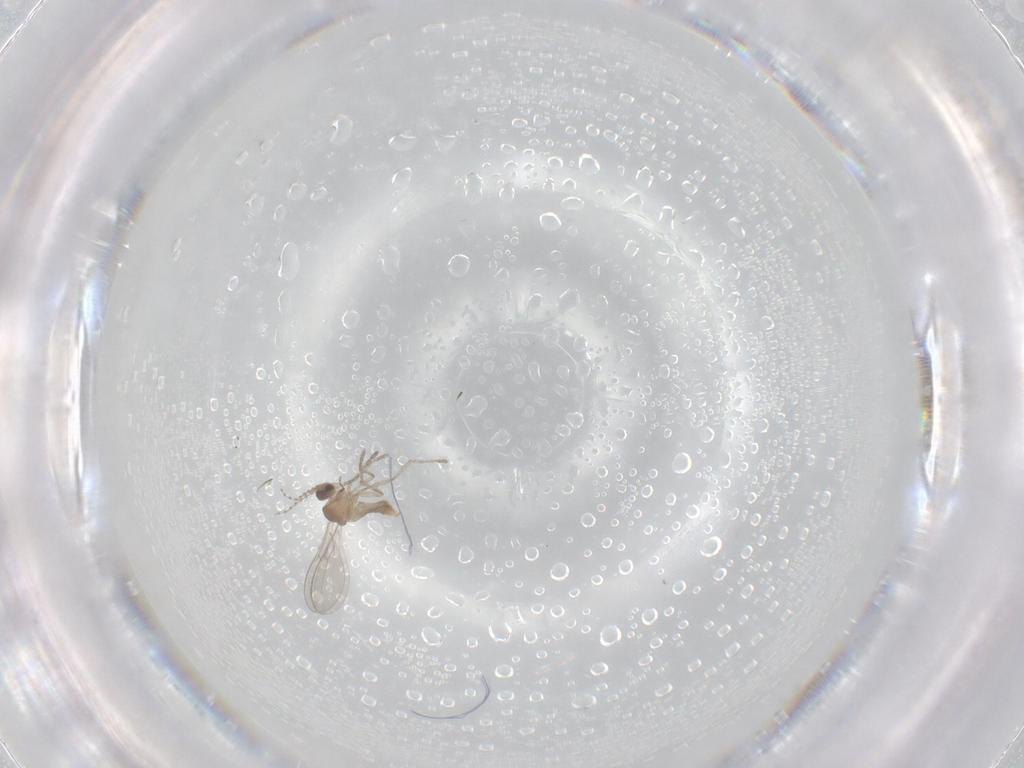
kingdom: Animalia
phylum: Arthropoda
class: Insecta
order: Diptera
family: Cecidomyiidae
